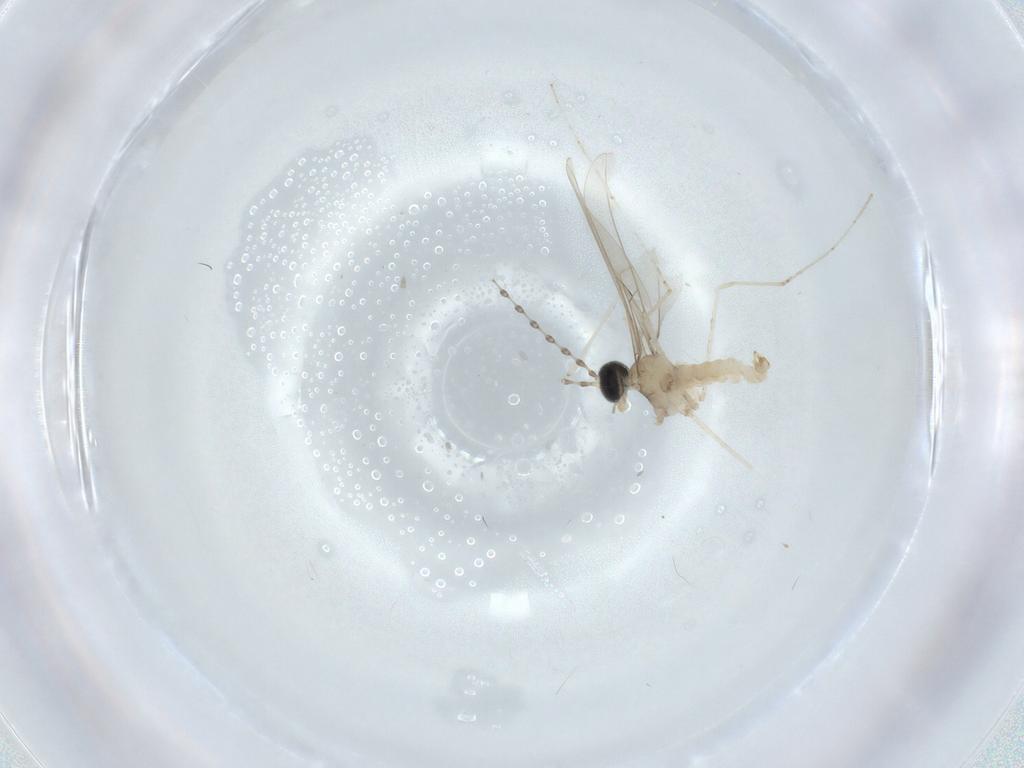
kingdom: Animalia
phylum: Arthropoda
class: Insecta
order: Diptera
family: Cecidomyiidae
